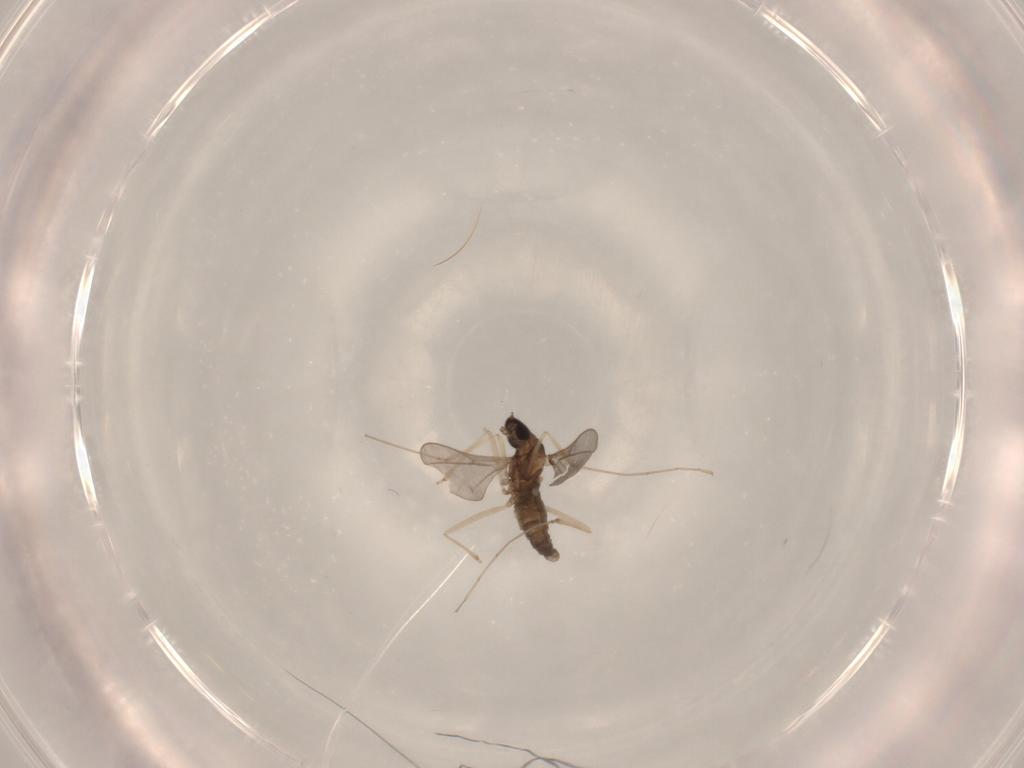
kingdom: Animalia
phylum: Arthropoda
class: Insecta
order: Diptera
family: Cecidomyiidae
